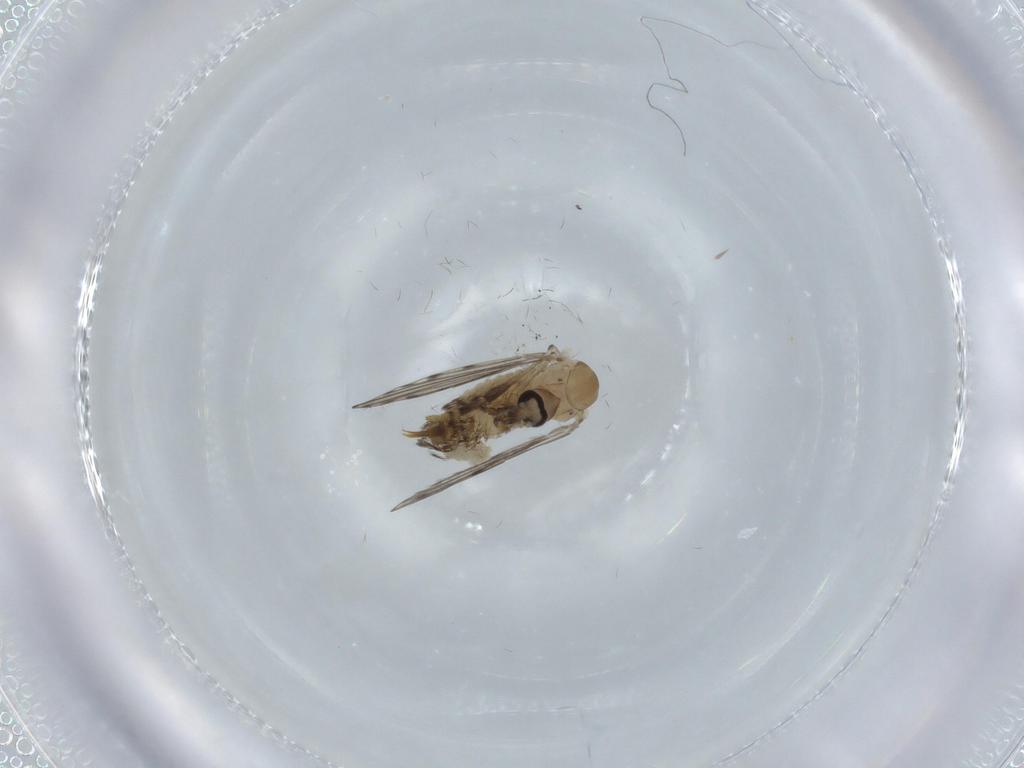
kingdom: Animalia
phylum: Arthropoda
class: Insecta
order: Diptera
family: Psychodidae
